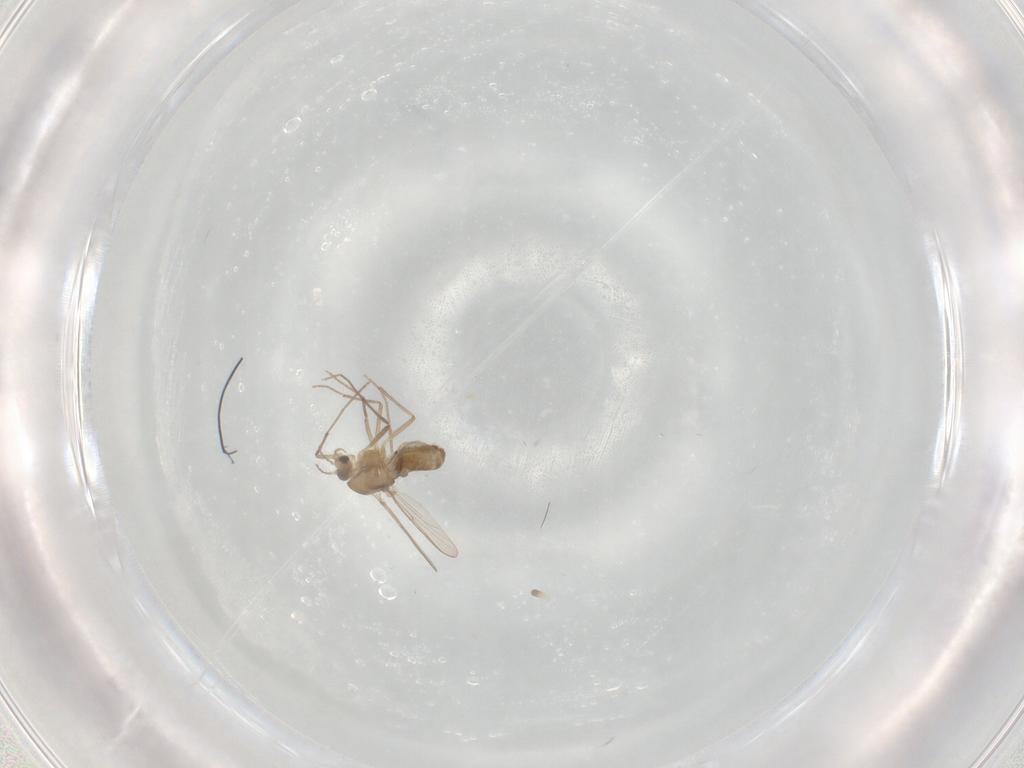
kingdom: Animalia
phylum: Arthropoda
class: Insecta
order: Diptera
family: Chironomidae
